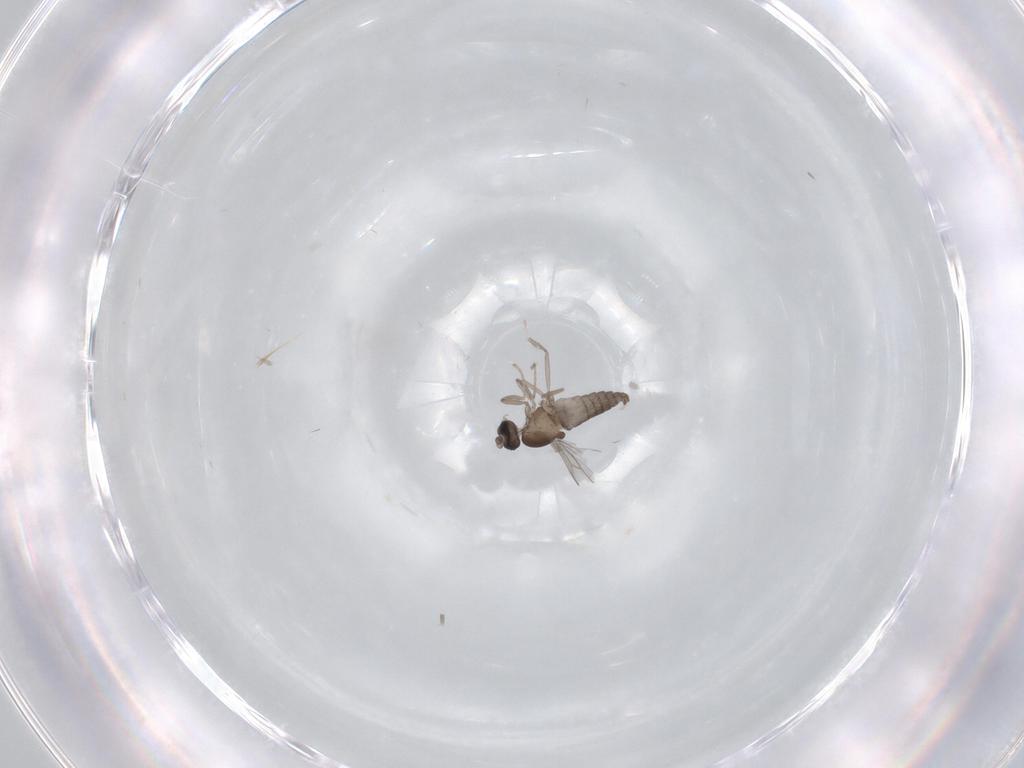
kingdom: Animalia
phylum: Arthropoda
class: Insecta
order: Diptera
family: Cecidomyiidae
